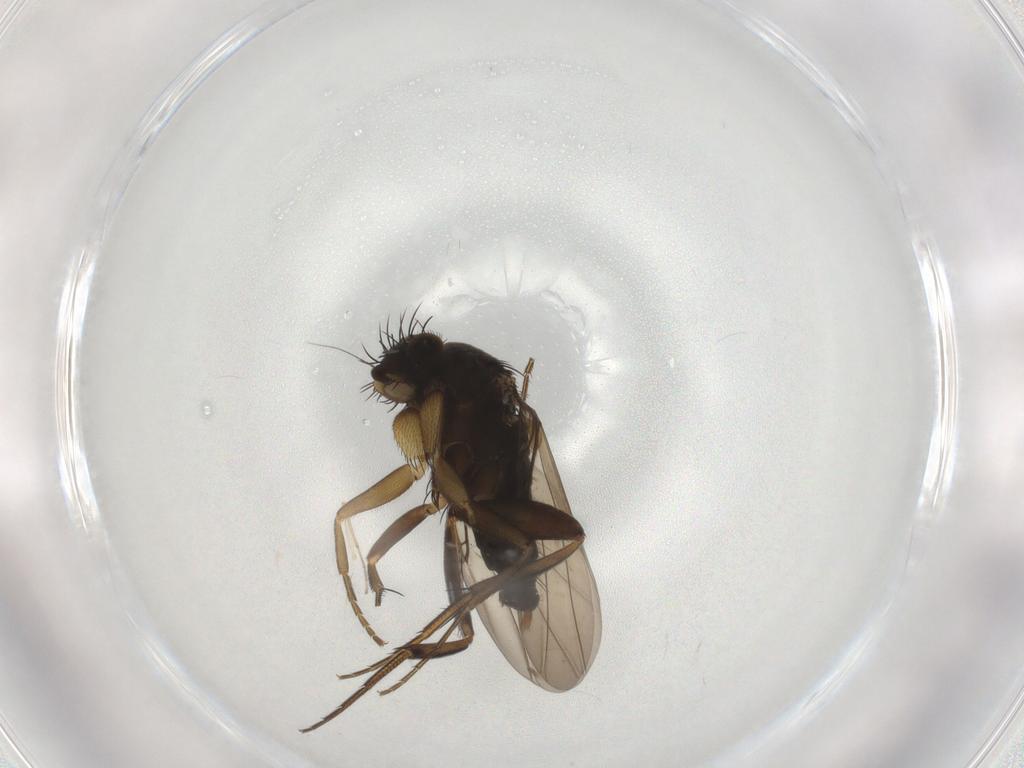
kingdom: Animalia
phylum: Arthropoda
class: Insecta
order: Diptera
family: Phoridae
